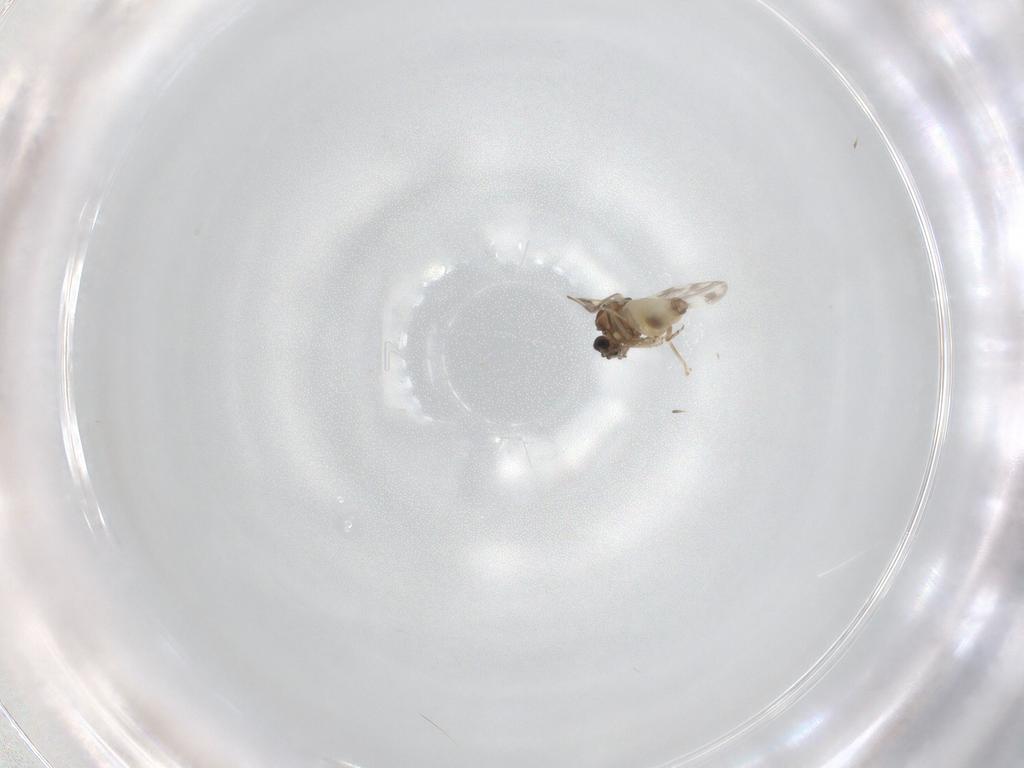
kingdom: Animalia
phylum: Arthropoda
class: Insecta
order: Diptera
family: Ceratopogonidae
